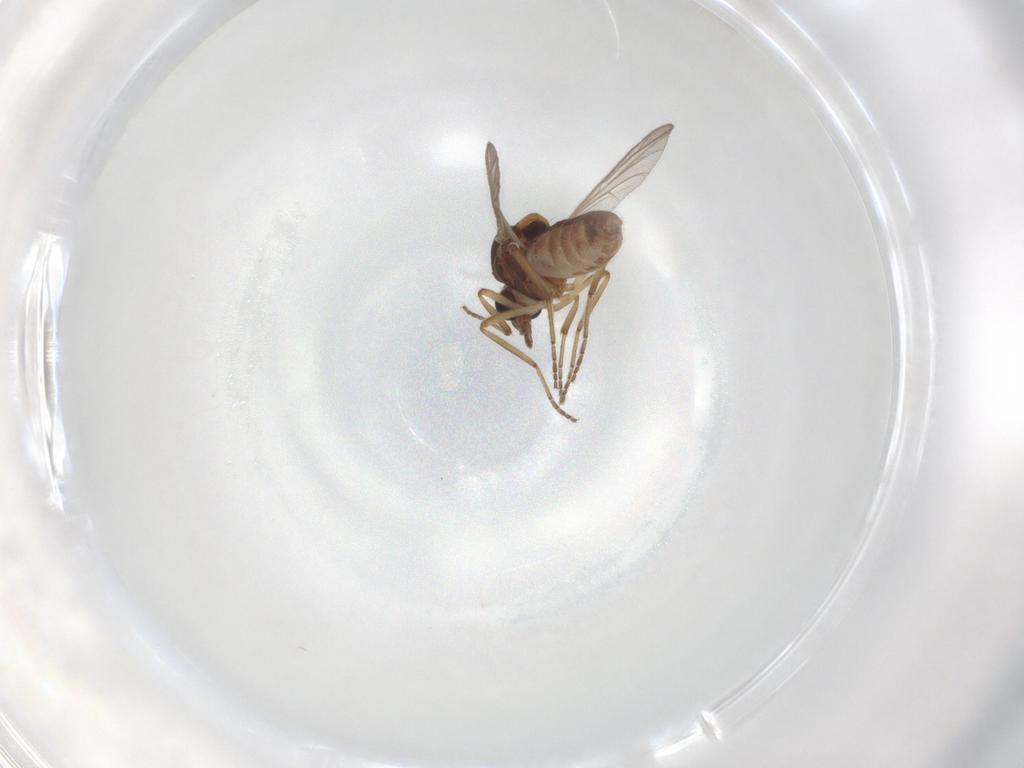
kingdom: Animalia
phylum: Arthropoda
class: Insecta
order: Diptera
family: Ceratopogonidae
